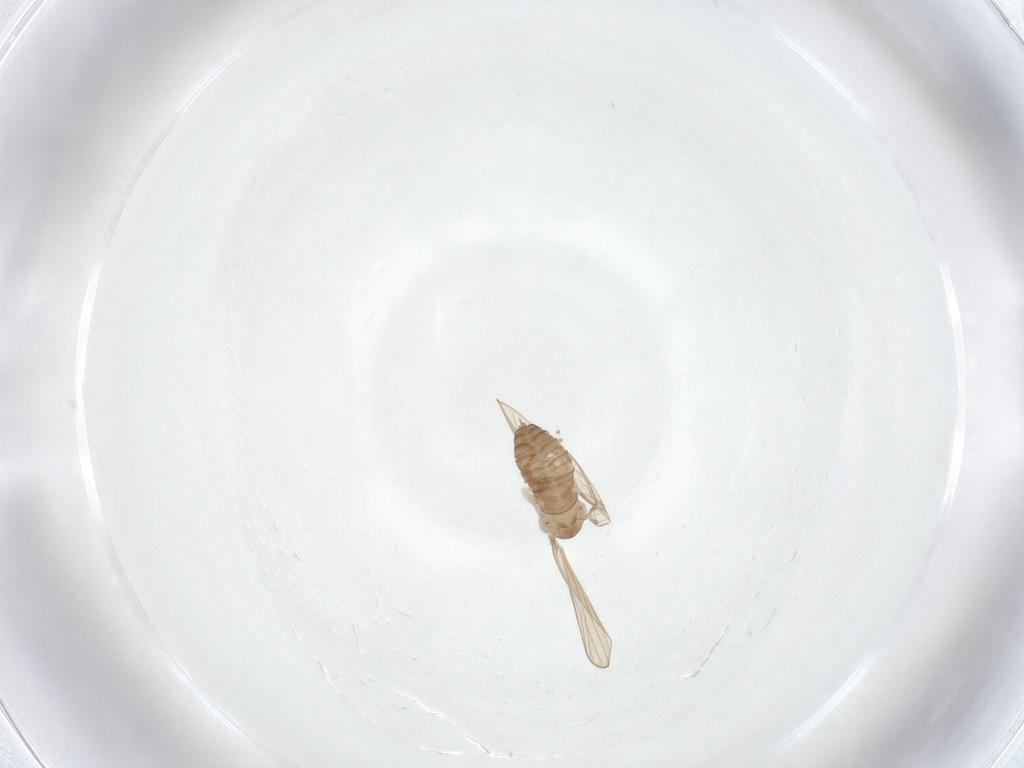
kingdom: Animalia
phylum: Arthropoda
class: Insecta
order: Diptera
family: Psychodidae
